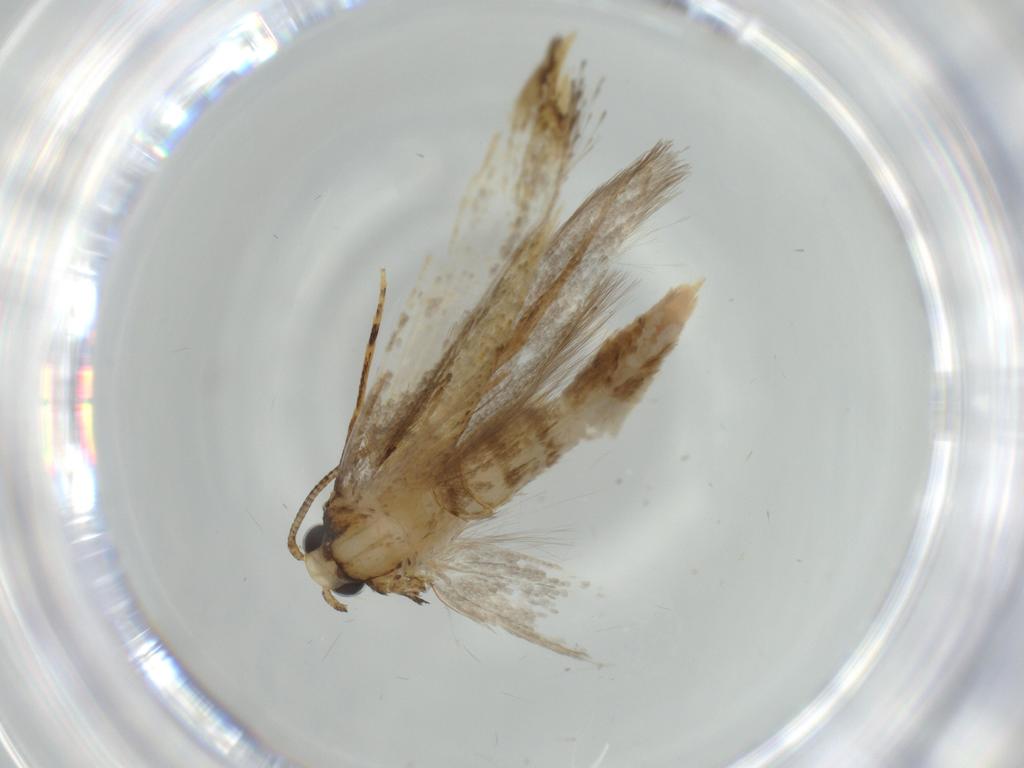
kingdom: Animalia
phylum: Arthropoda
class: Insecta
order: Lepidoptera
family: Tineidae
